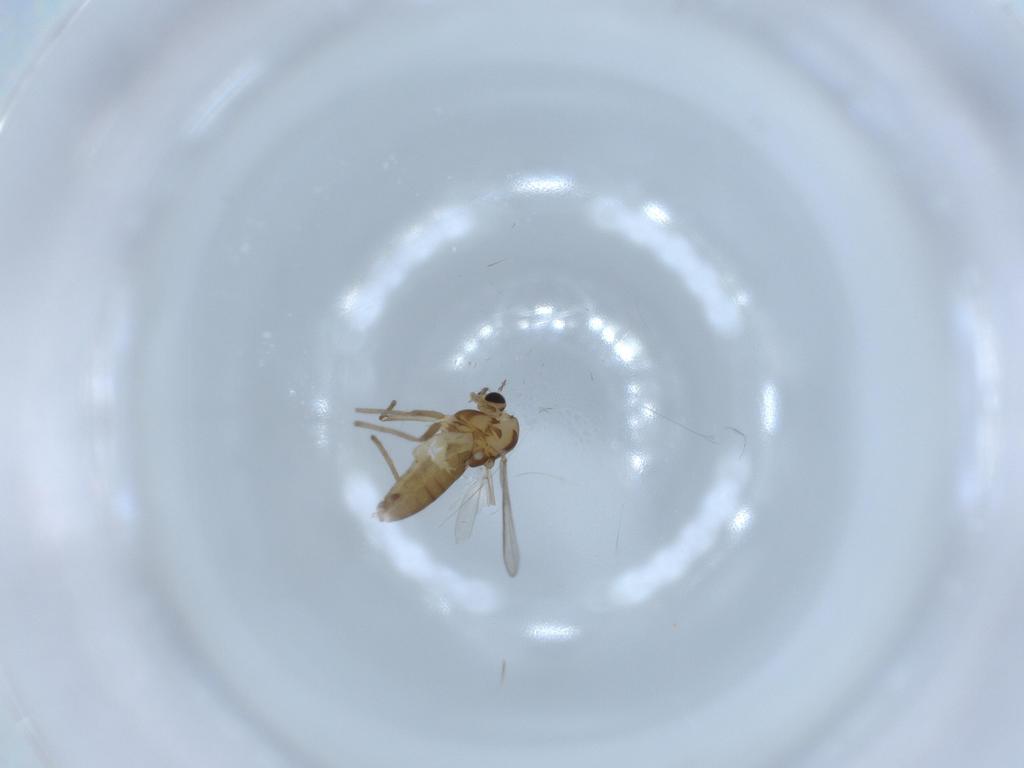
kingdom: Animalia
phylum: Arthropoda
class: Insecta
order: Diptera
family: Chironomidae
